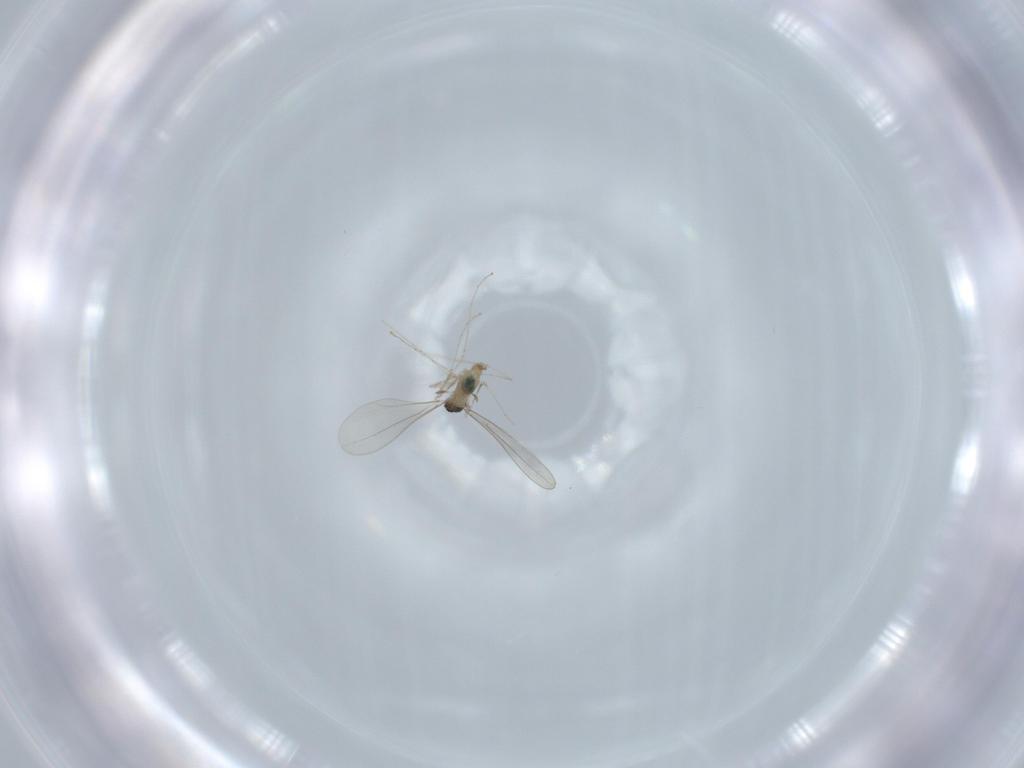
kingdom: Animalia
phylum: Arthropoda
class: Insecta
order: Diptera
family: Cecidomyiidae
